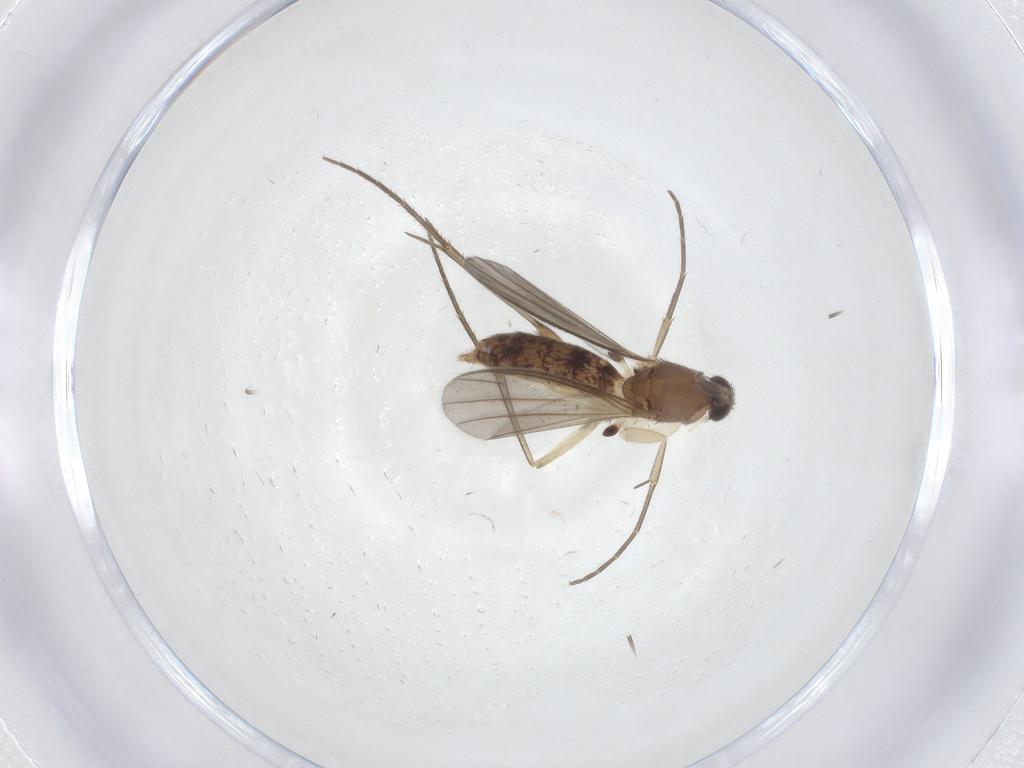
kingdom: Animalia
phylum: Arthropoda
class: Insecta
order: Diptera
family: Mycetophilidae
